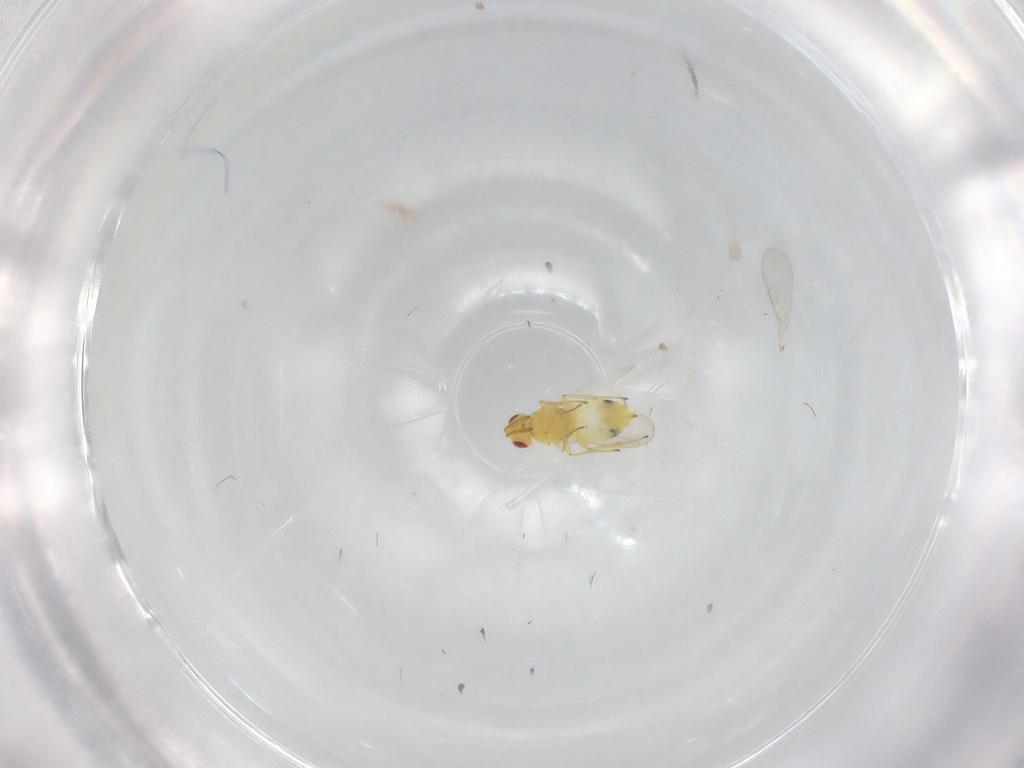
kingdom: Animalia
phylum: Arthropoda
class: Insecta
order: Hymenoptera
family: Aphelinidae
